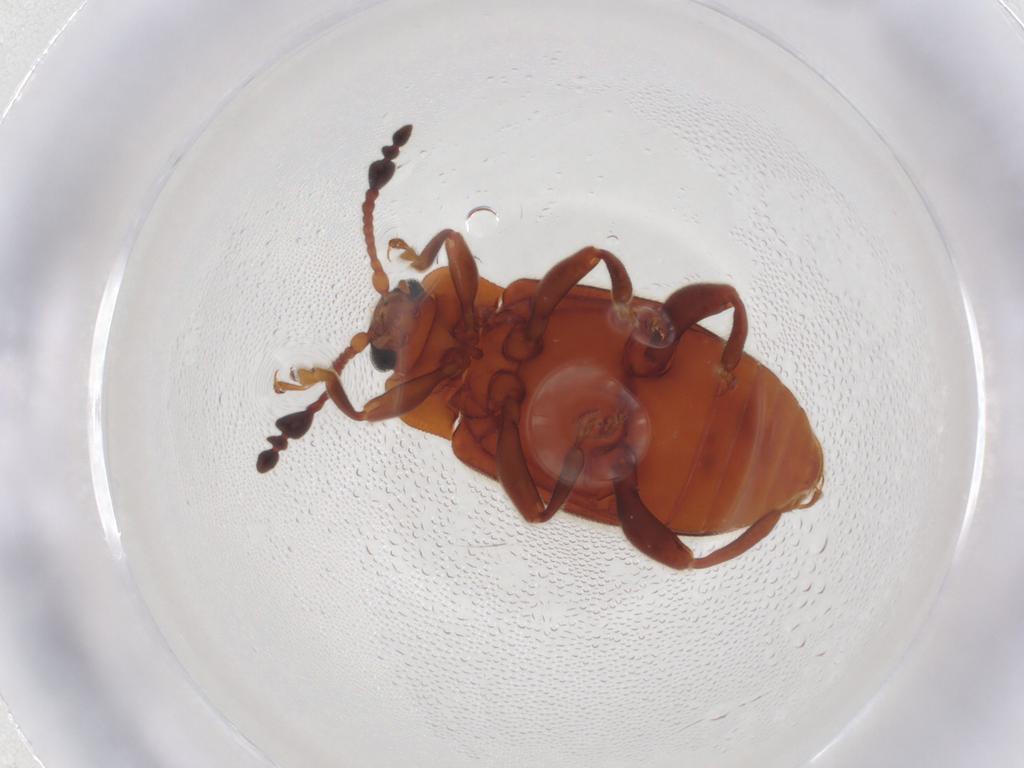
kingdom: Animalia
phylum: Arthropoda
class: Insecta
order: Coleoptera
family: Endomychidae
